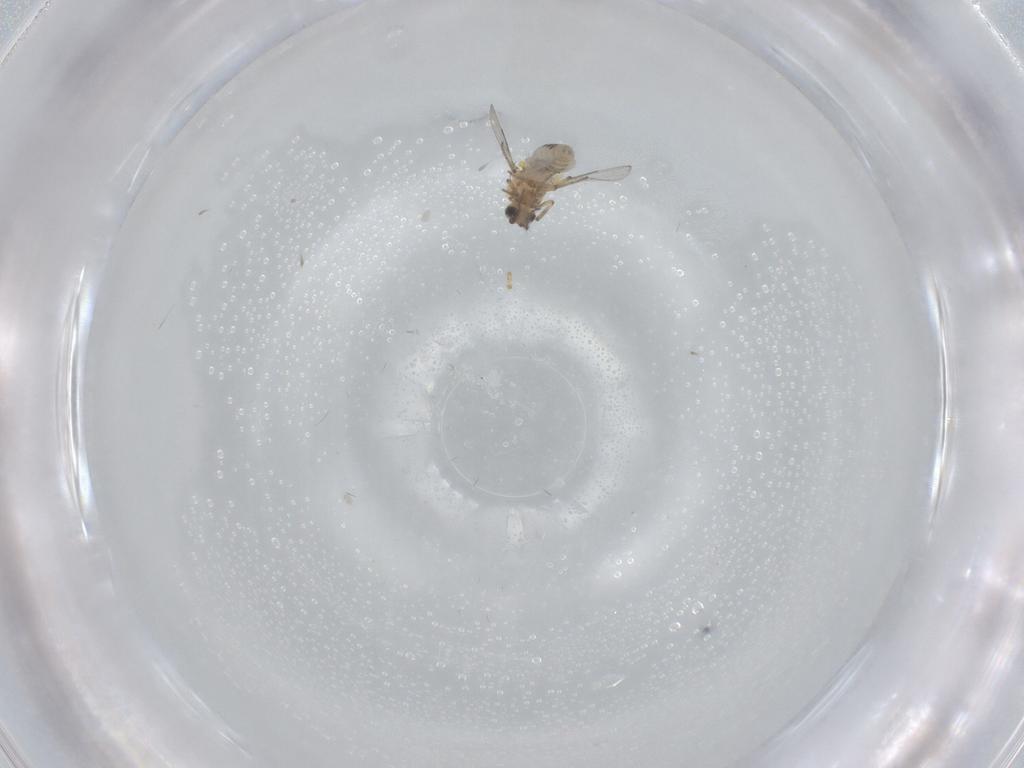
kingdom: Animalia
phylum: Arthropoda
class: Insecta
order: Diptera
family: Ceratopogonidae
